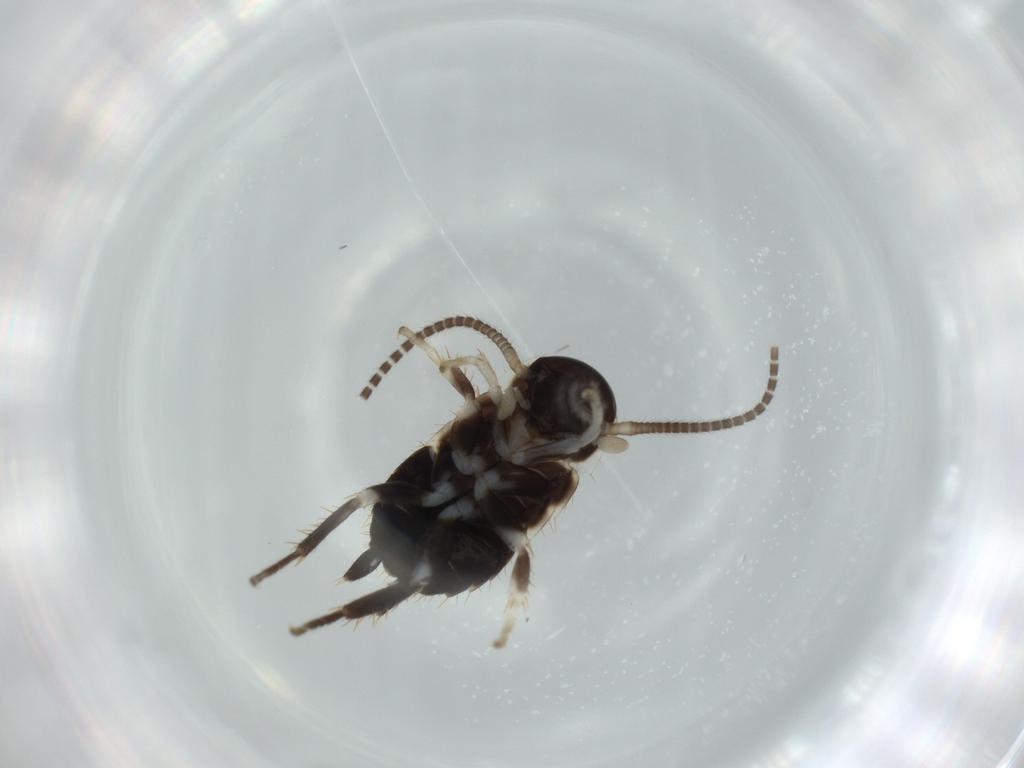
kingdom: Animalia
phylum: Arthropoda
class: Insecta
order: Blattodea
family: Ectobiidae
